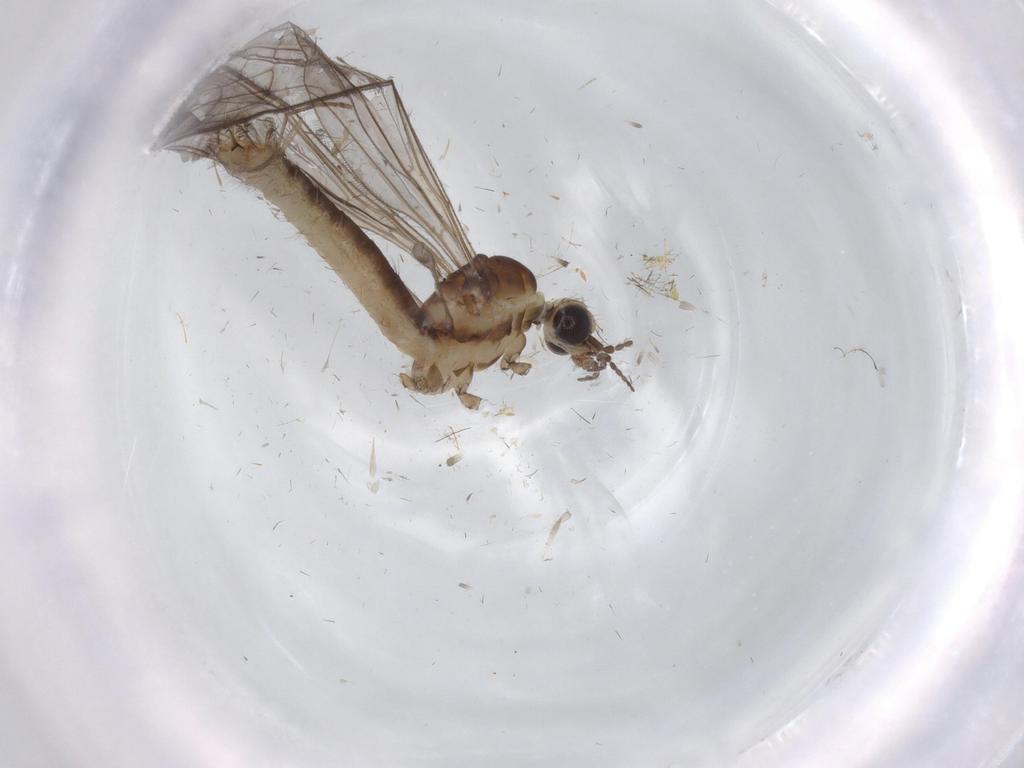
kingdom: Animalia
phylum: Arthropoda
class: Insecta
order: Diptera
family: Limoniidae
